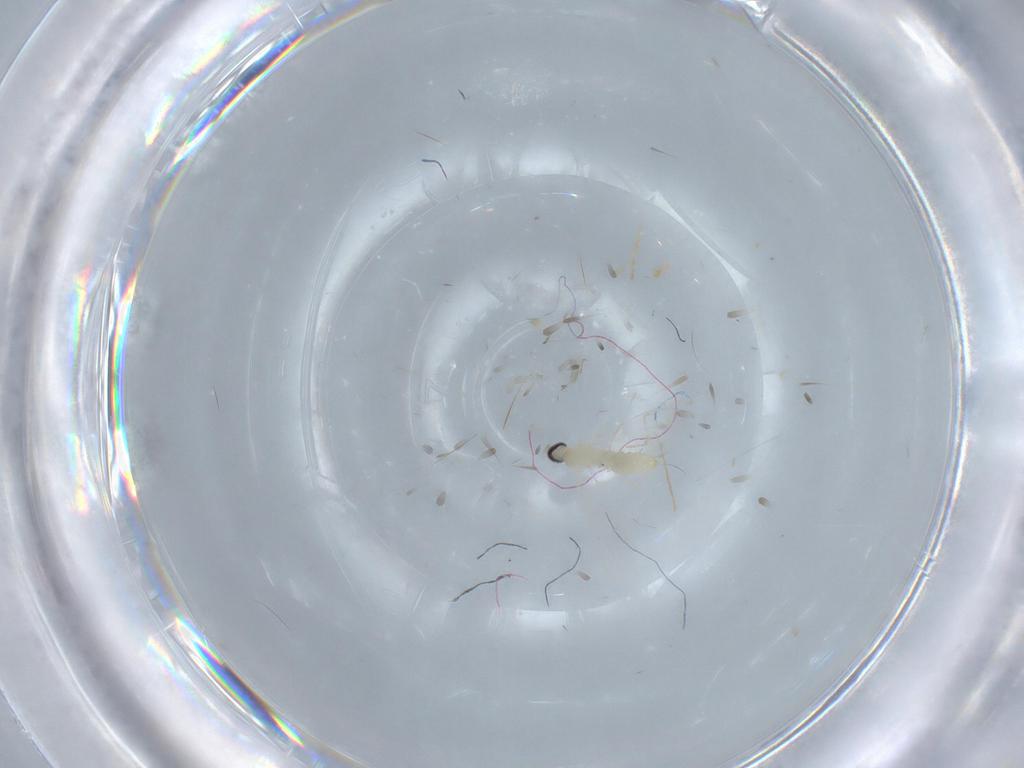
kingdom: Animalia
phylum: Arthropoda
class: Insecta
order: Diptera
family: Cecidomyiidae
